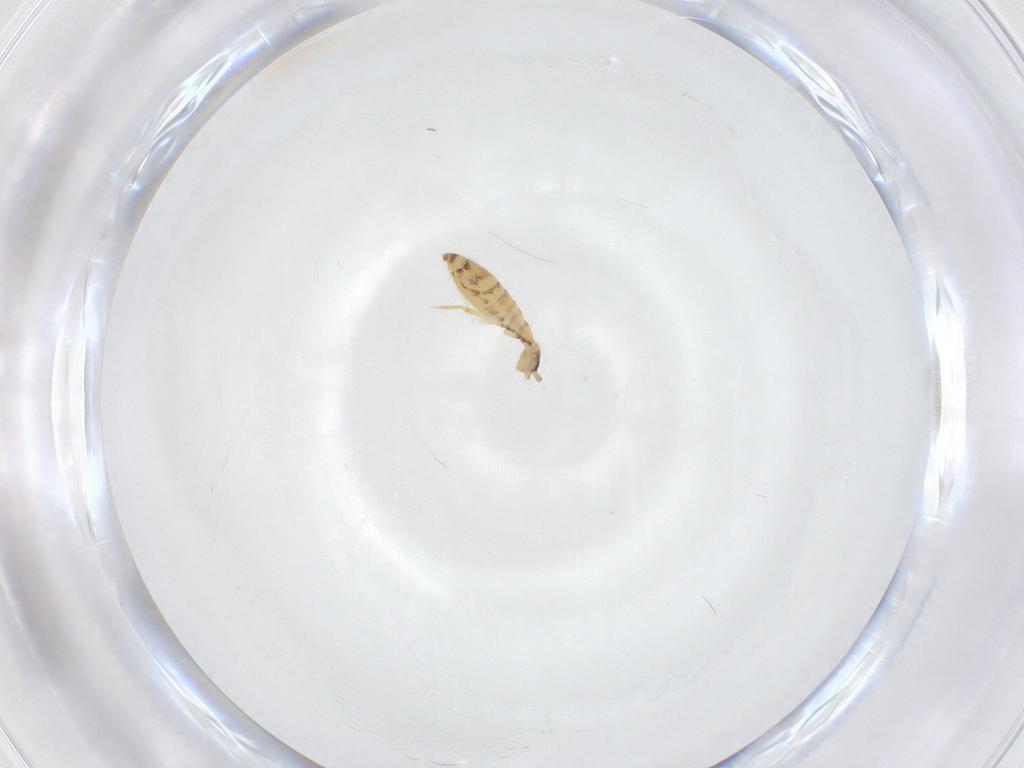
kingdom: Animalia
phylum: Arthropoda
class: Collembola
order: Entomobryomorpha
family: Entomobryidae
